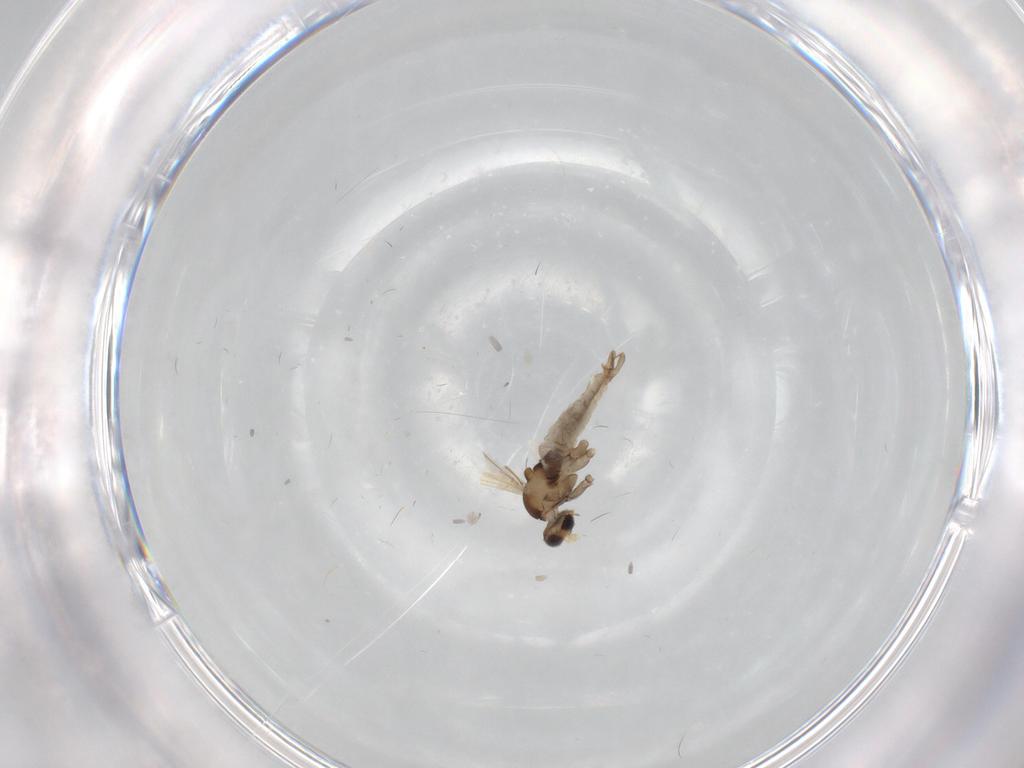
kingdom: Animalia
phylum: Arthropoda
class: Insecta
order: Diptera
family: Cecidomyiidae
